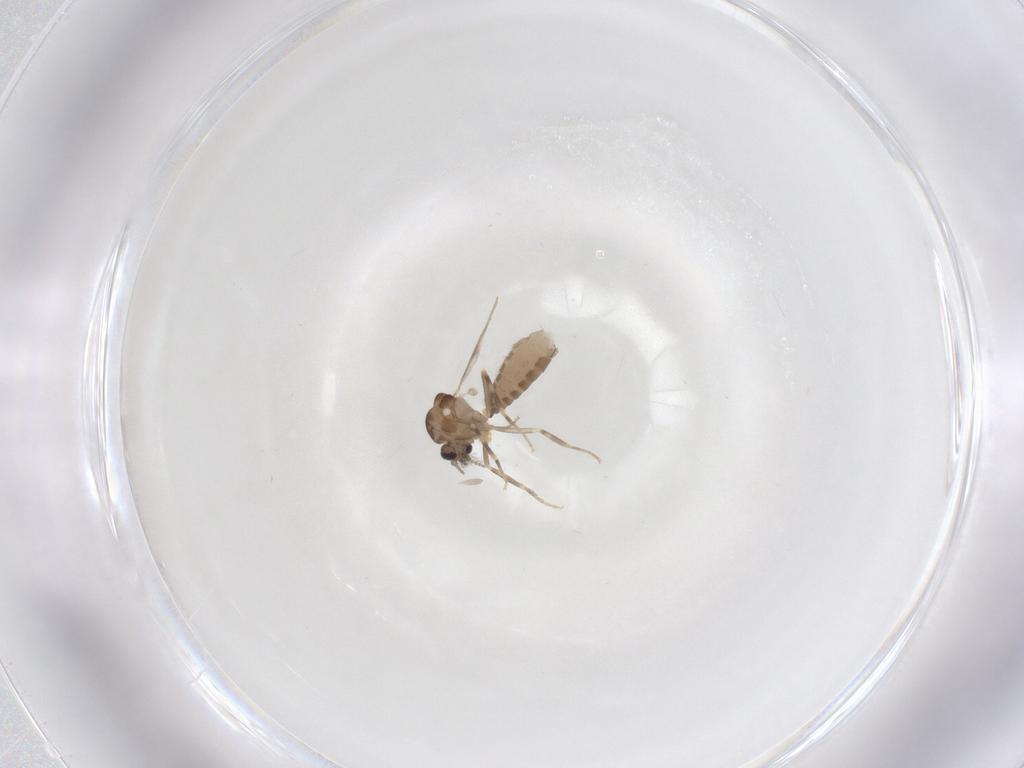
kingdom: Animalia
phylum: Arthropoda
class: Insecta
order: Diptera
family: Ceratopogonidae
